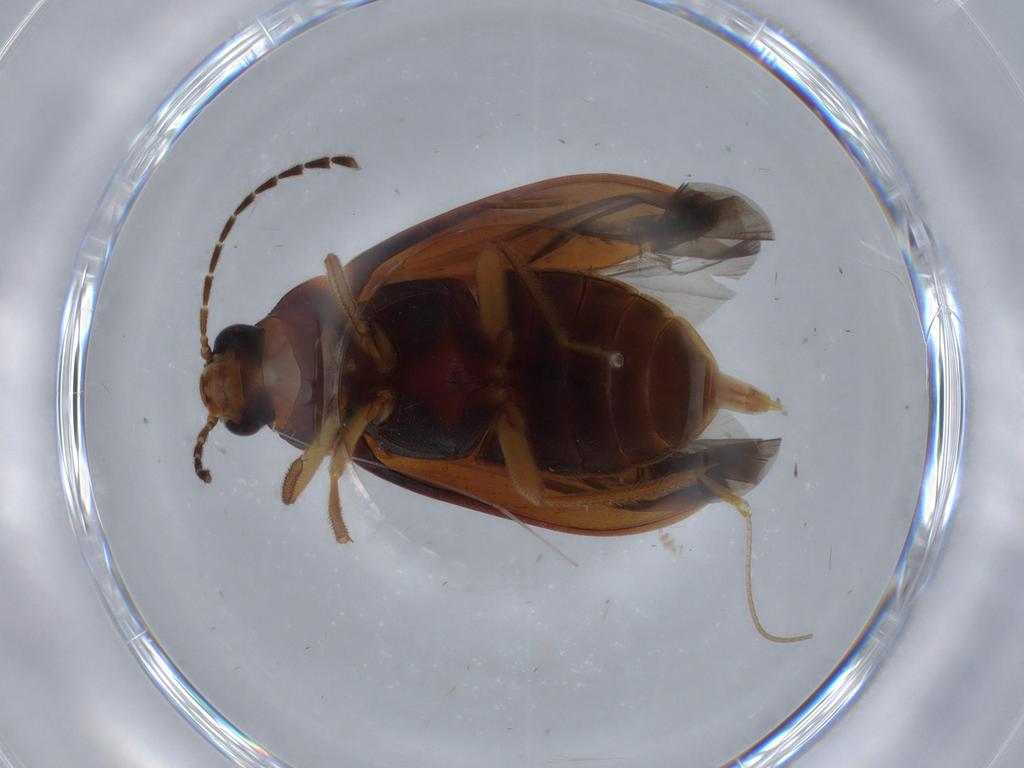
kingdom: Animalia
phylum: Arthropoda
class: Insecta
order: Coleoptera
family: Ptilodactylidae
